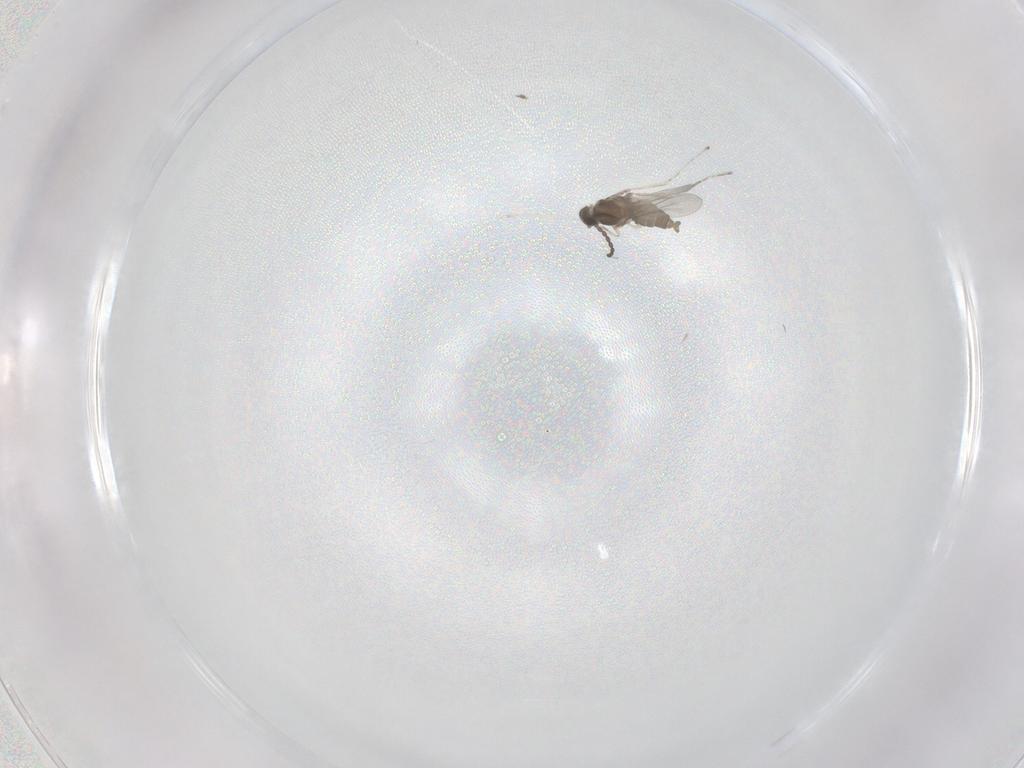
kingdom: Animalia
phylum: Arthropoda
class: Insecta
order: Diptera
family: Cecidomyiidae
